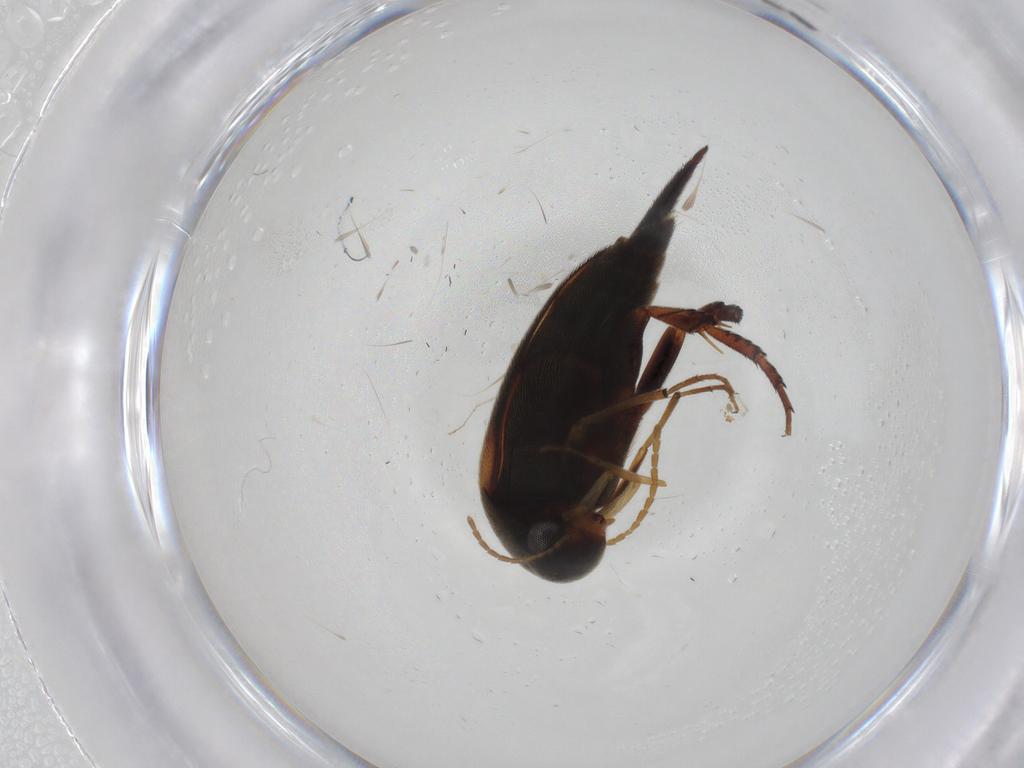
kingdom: Animalia
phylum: Arthropoda
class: Insecta
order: Coleoptera
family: Mordellidae
